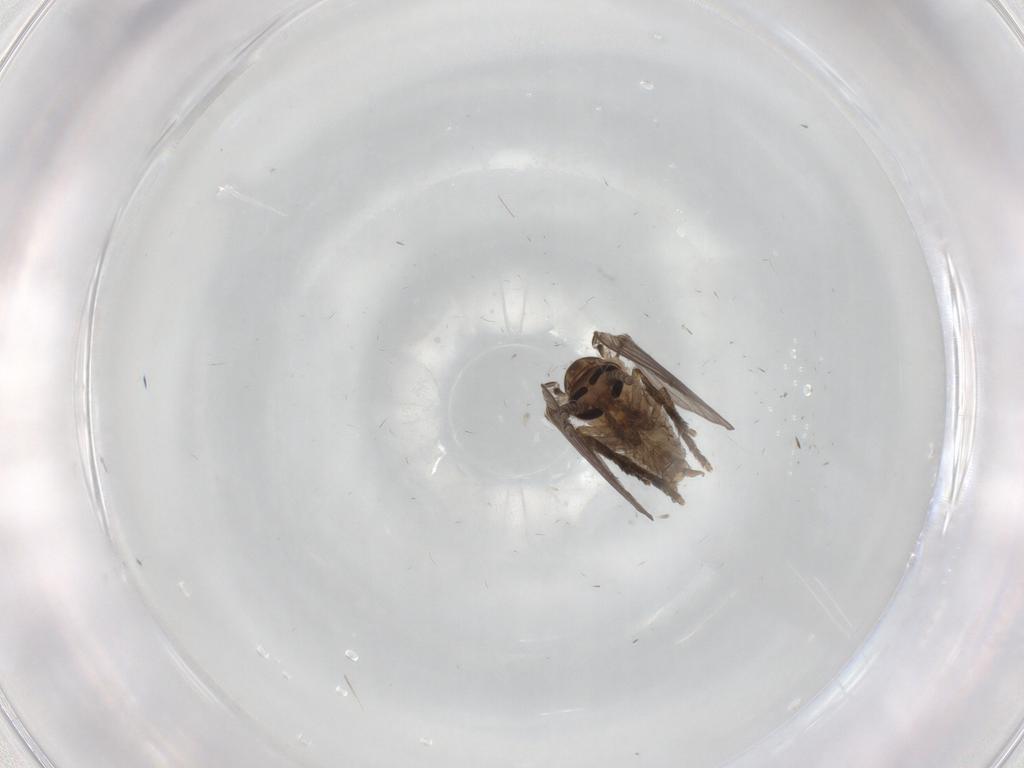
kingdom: Animalia
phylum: Arthropoda
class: Insecta
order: Diptera
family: Psychodidae
